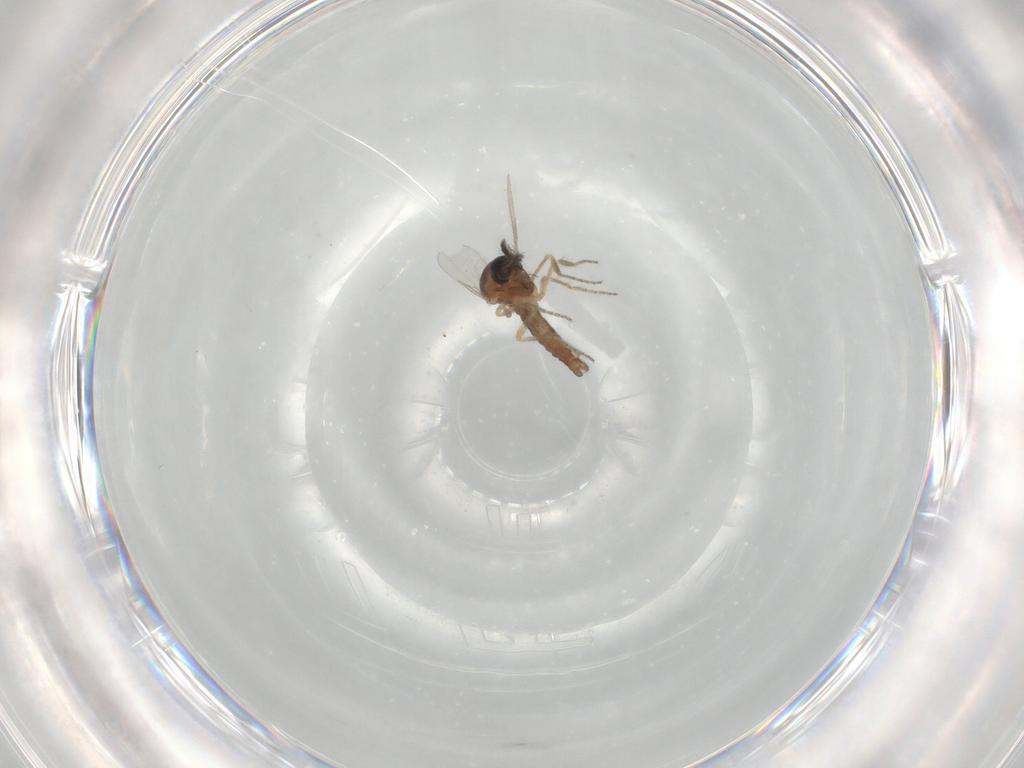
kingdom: Animalia
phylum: Arthropoda
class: Insecta
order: Diptera
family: Ceratopogonidae
